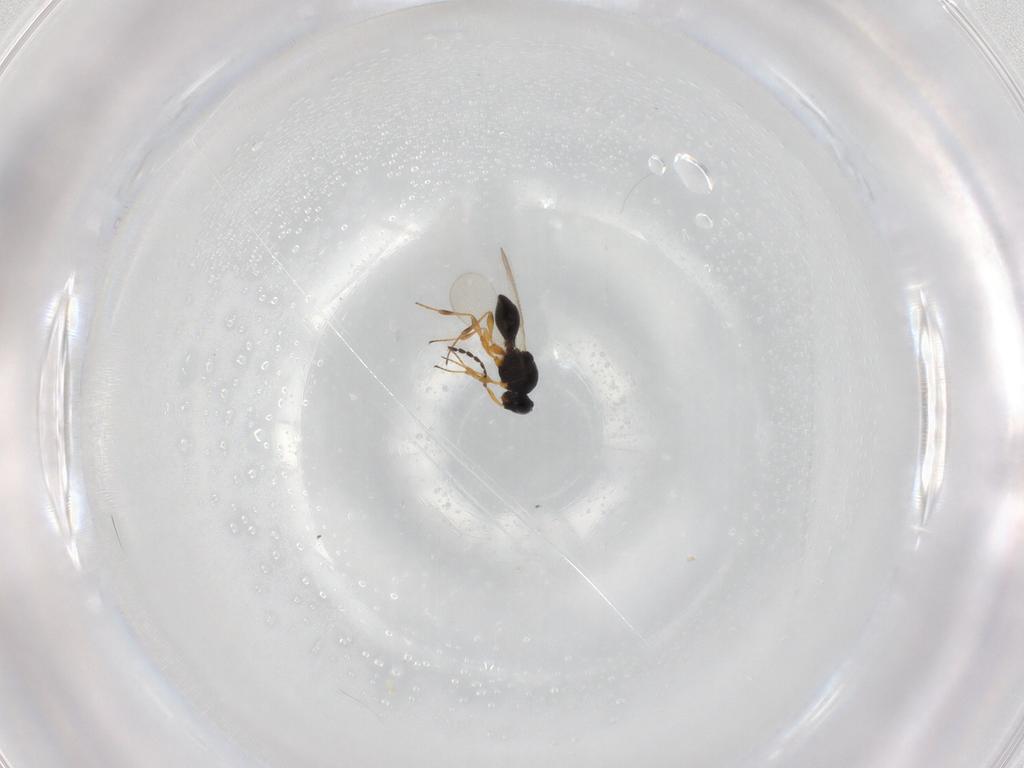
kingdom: Animalia
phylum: Arthropoda
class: Insecta
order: Hymenoptera
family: Platygastridae
